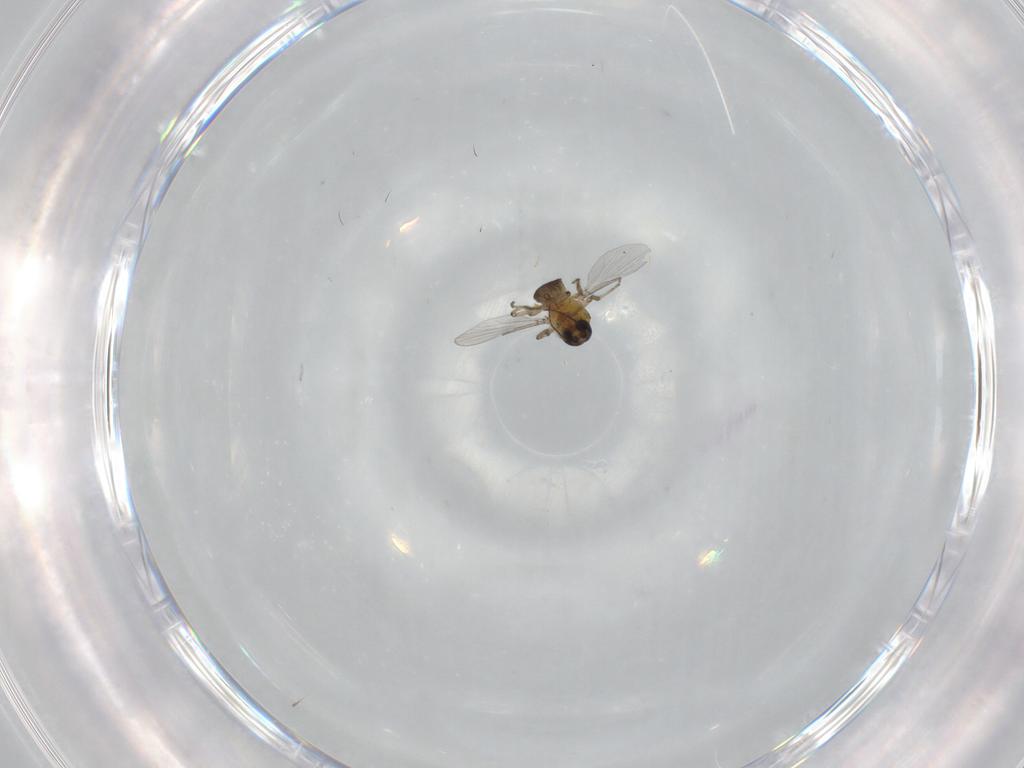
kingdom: Animalia
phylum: Arthropoda
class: Insecta
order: Diptera
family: Ceratopogonidae
